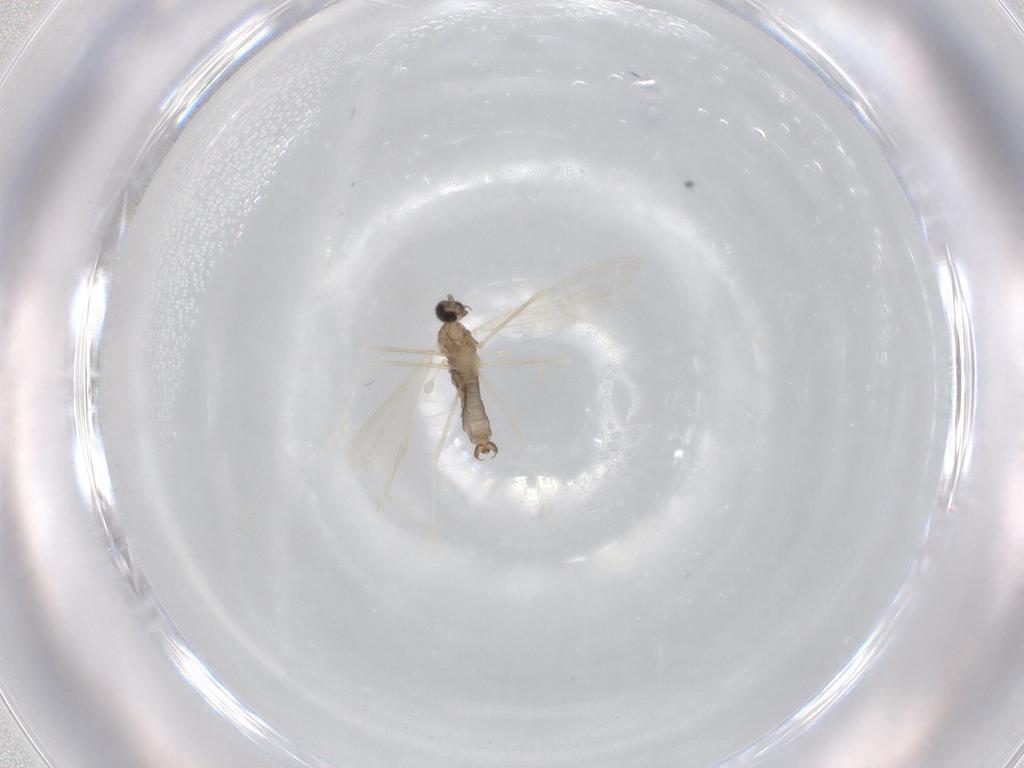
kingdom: Animalia
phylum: Arthropoda
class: Insecta
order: Diptera
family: Cecidomyiidae
